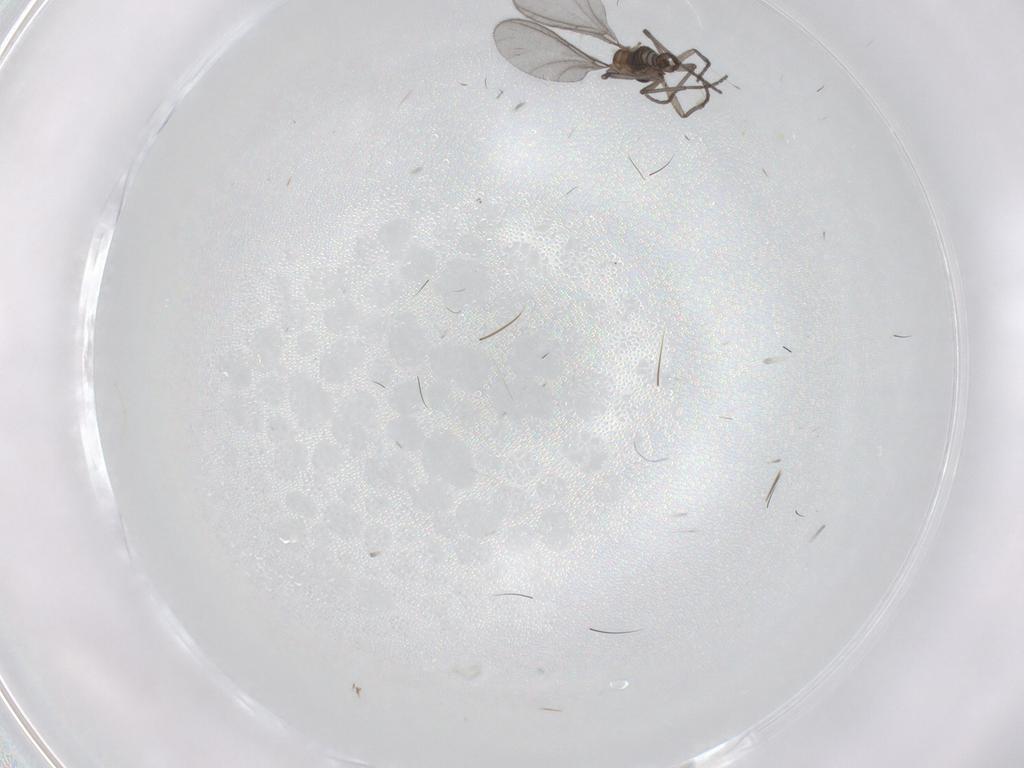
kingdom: Animalia
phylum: Arthropoda
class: Insecta
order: Diptera
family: Sciaridae
